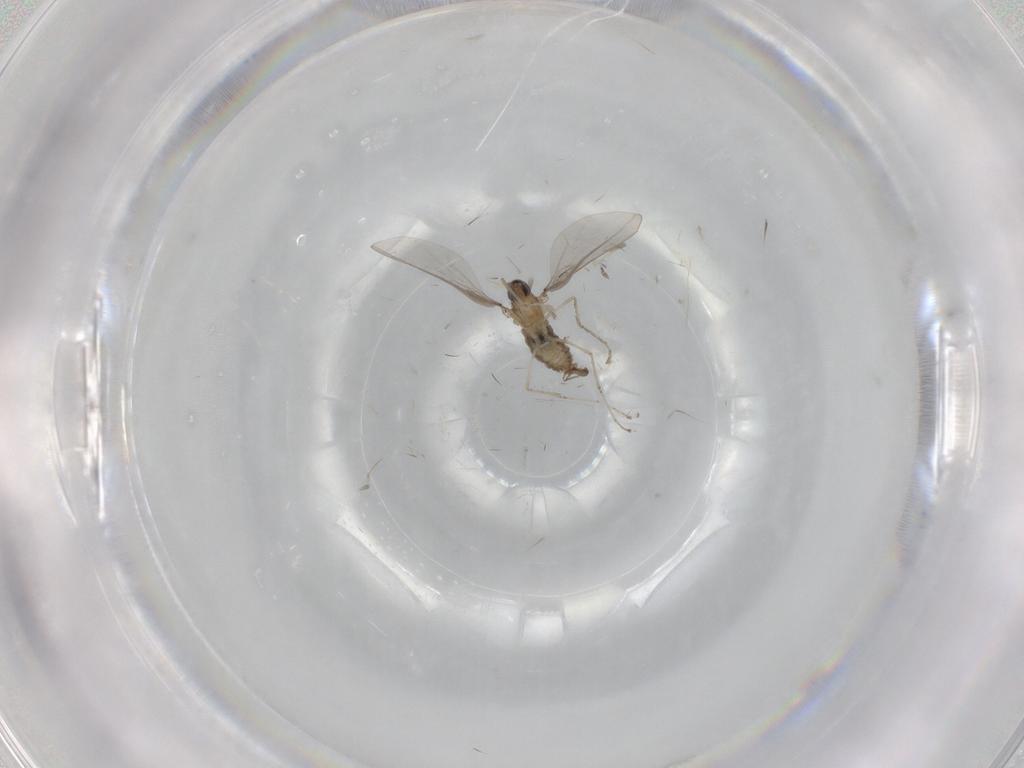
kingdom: Animalia
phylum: Arthropoda
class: Insecta
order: Diptera
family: Cecidomyiidae
